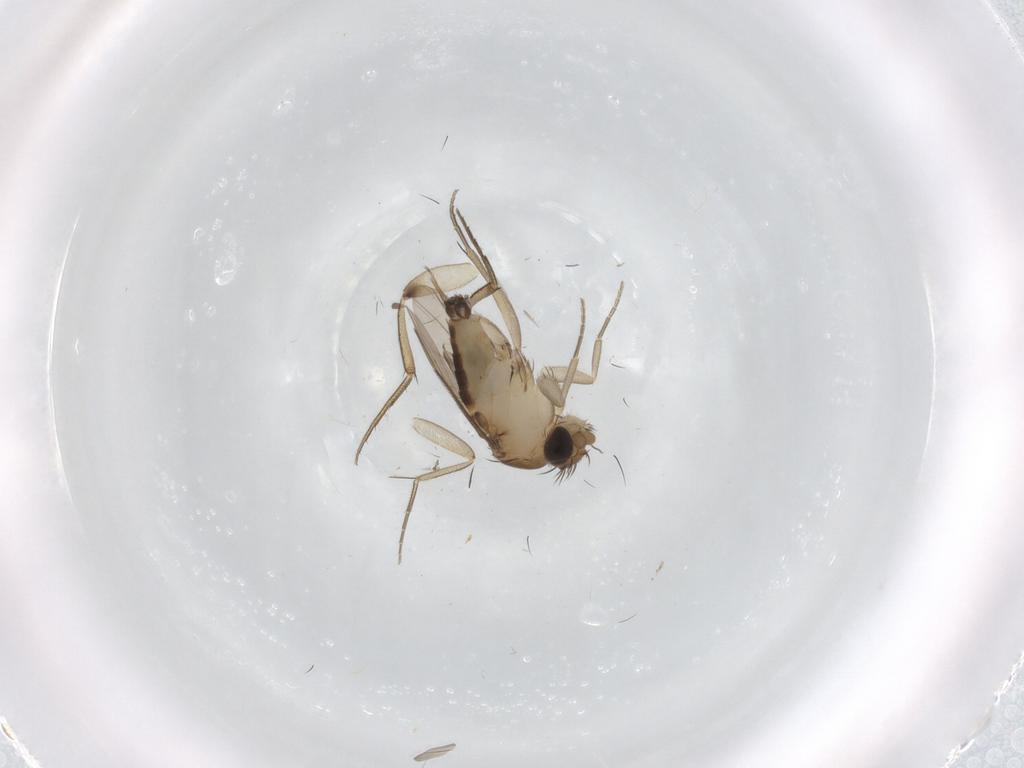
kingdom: Animalia
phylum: Arthropoda
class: Insecta
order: Diptera
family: Phoridae
